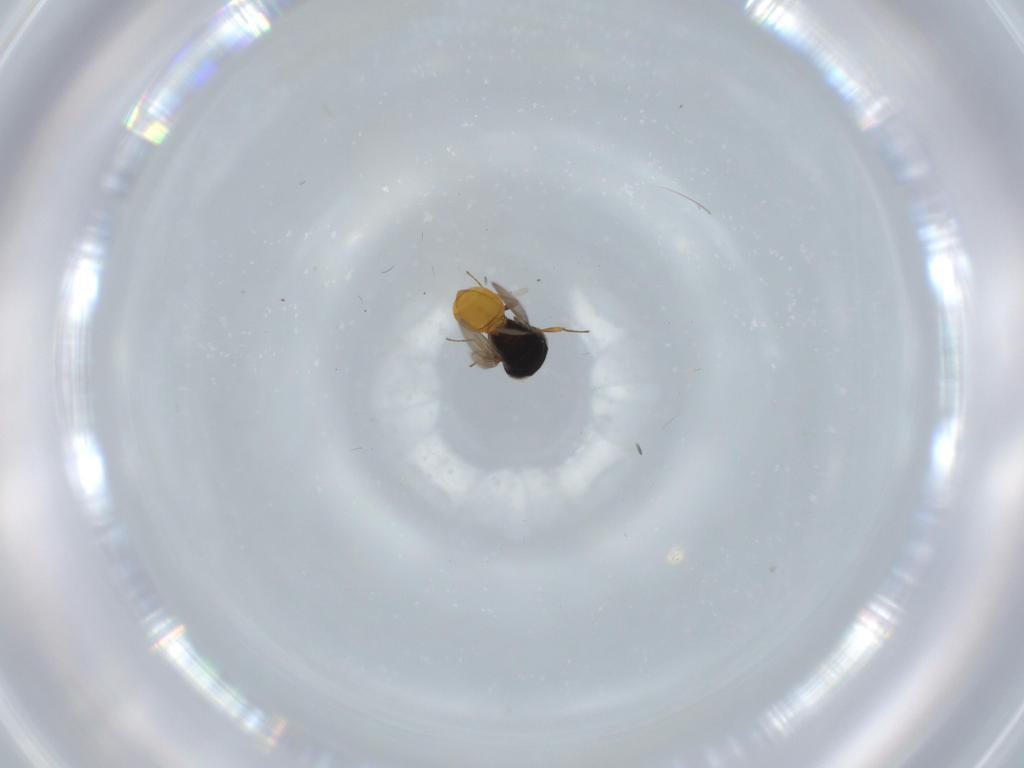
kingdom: Animalia
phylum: Arthropoda
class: Insecta
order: Hymenoptera
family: Scelionidae
